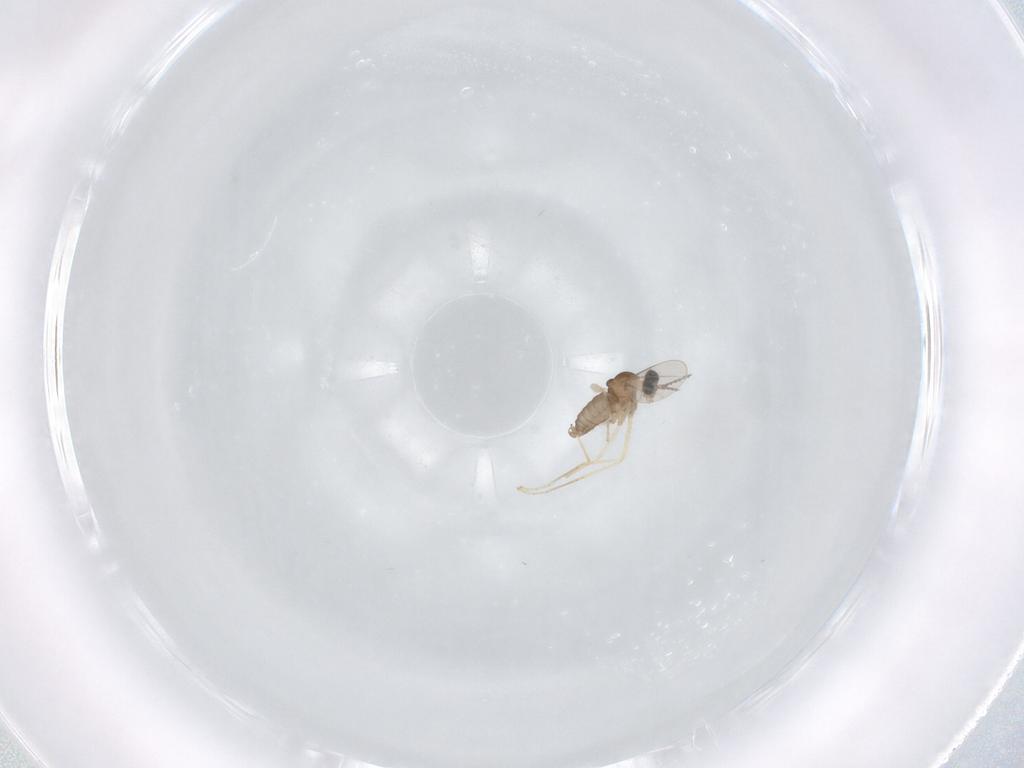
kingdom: Animalia
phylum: Arthropoda
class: Insecta
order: Diptera
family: Cecidomyiidae
